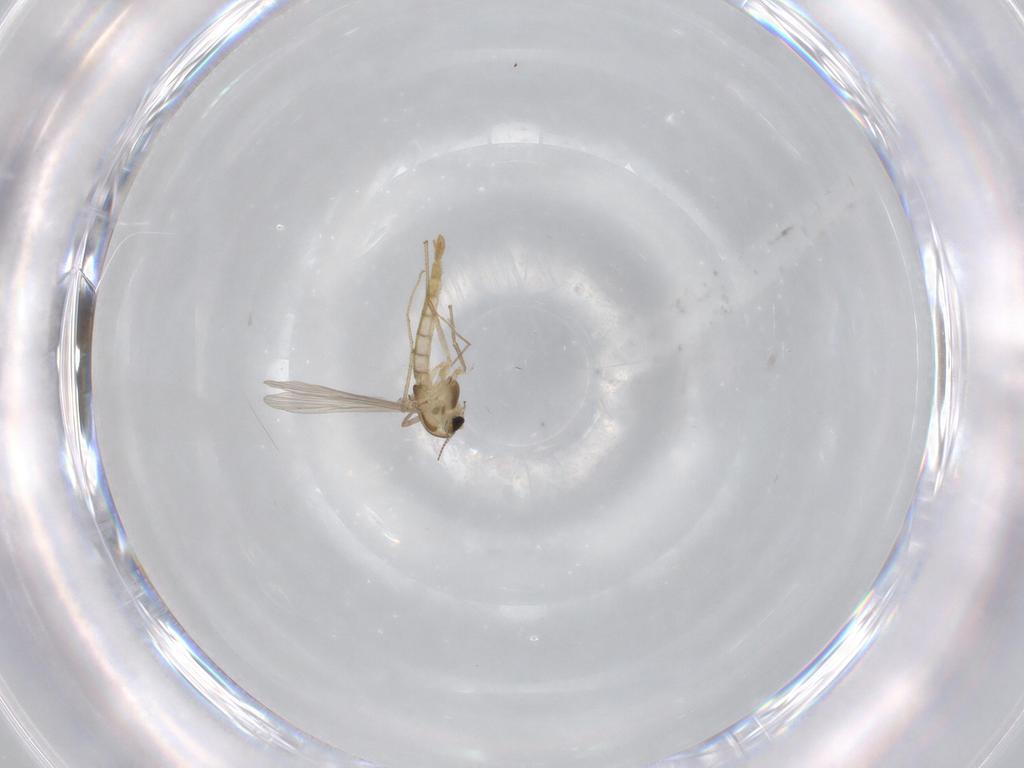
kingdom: Animalia
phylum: Arthropoda
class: Insecta
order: Diptera
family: Chironomidae
